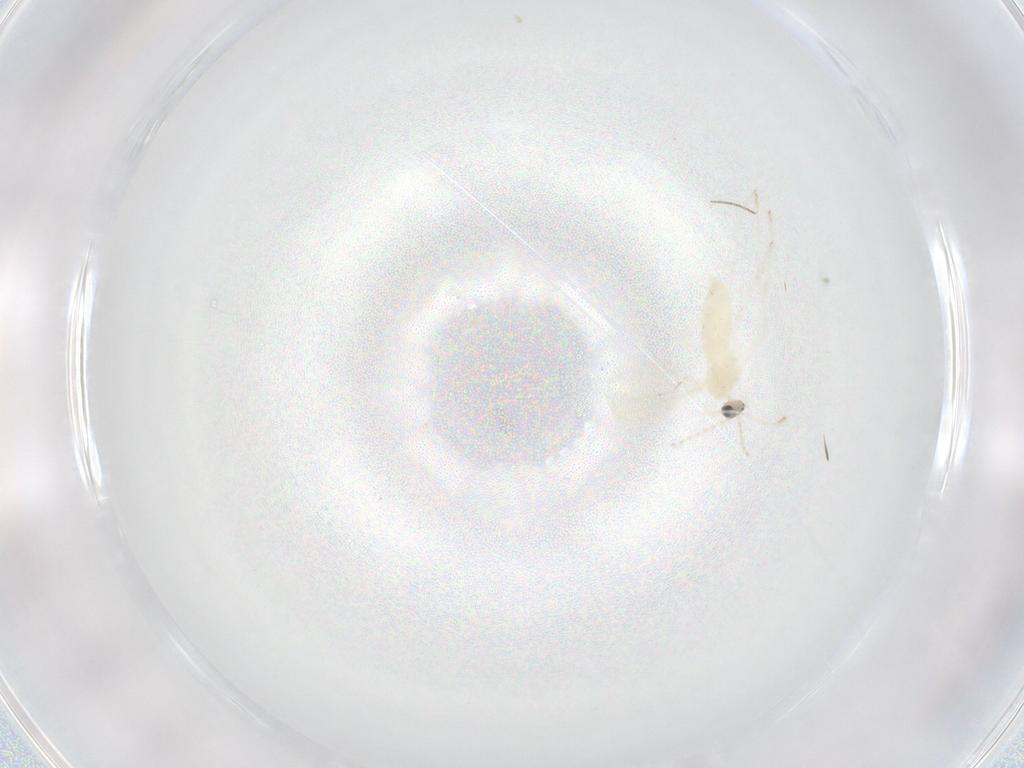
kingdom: Animalia
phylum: Arthropoda
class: Insecta
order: Diptera
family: Cecidomyiidae
